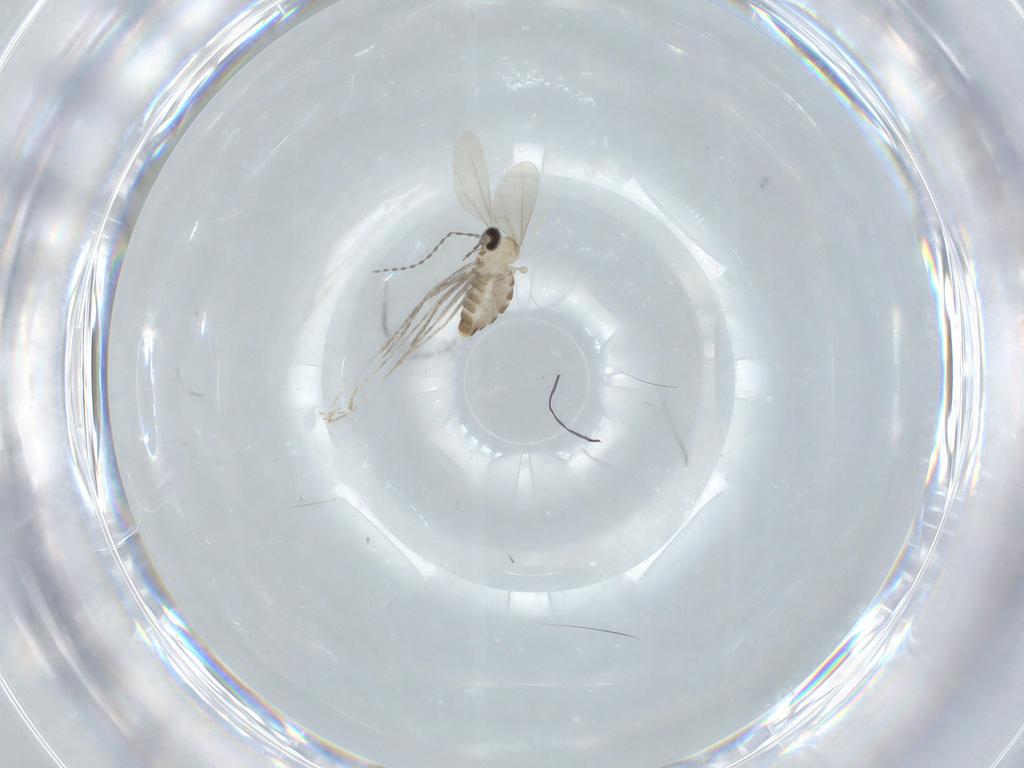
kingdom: Animalia
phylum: Arthropoda
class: Insecta
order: Diptera
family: Cecidomyiidae
